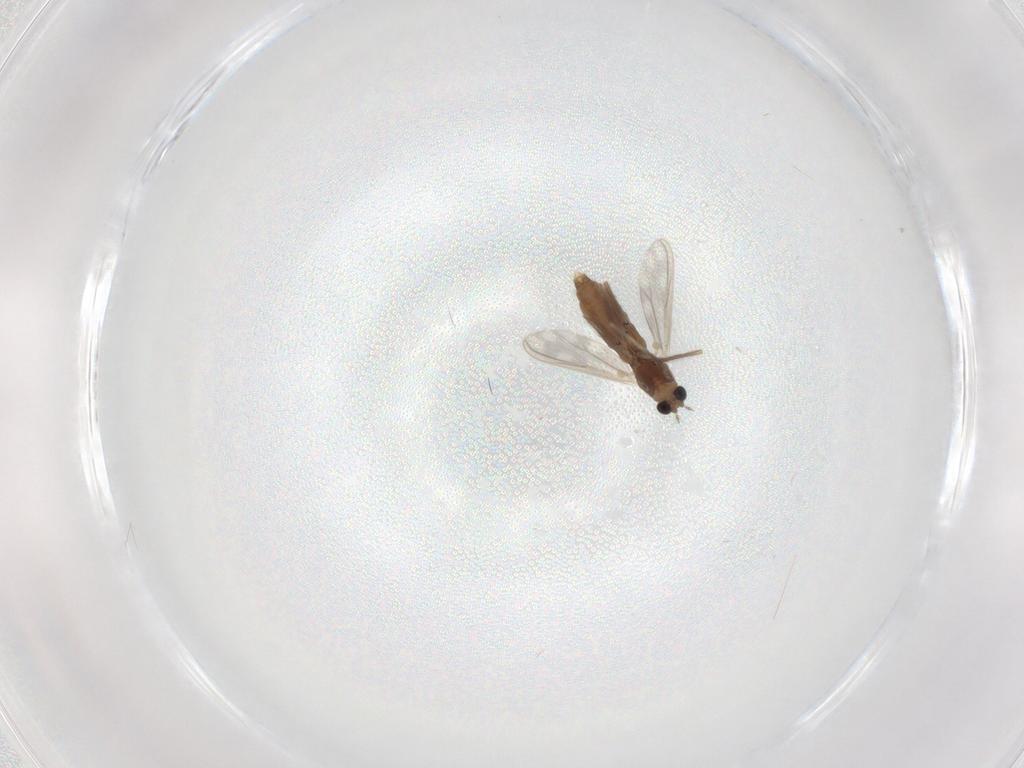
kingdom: Animalia
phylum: Arthropoda
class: Insecta
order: Diptera
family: Chironomidae
